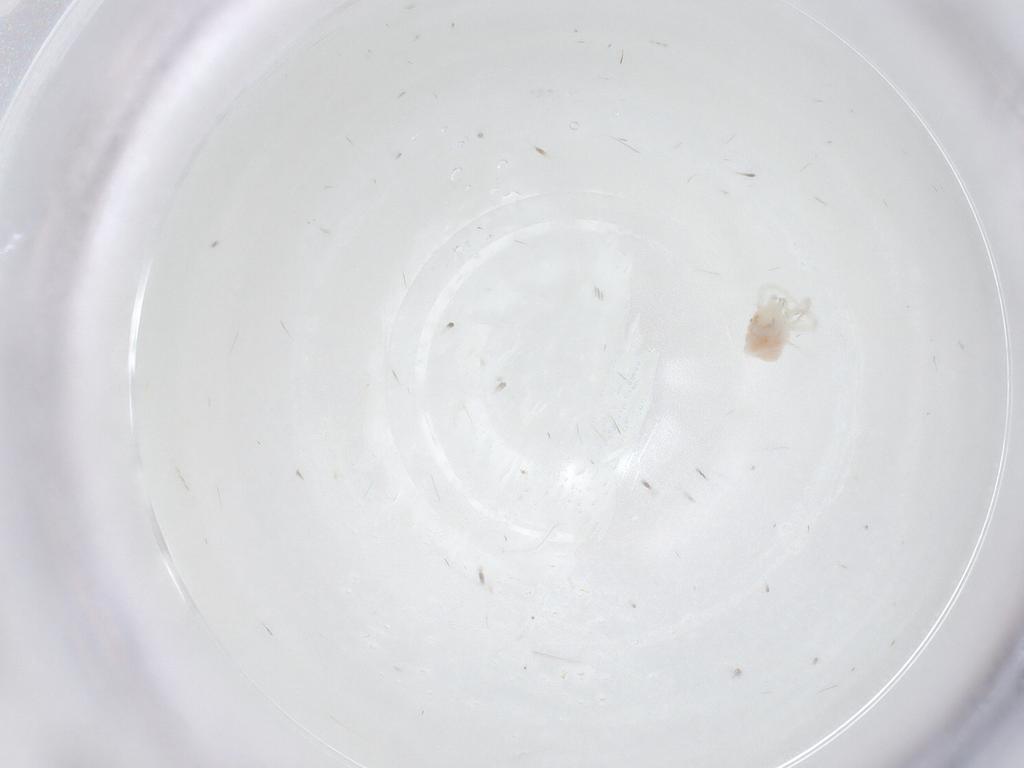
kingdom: Animalia
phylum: Arthropoda
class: Arachnida
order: Trombidiformes
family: Anystidae
